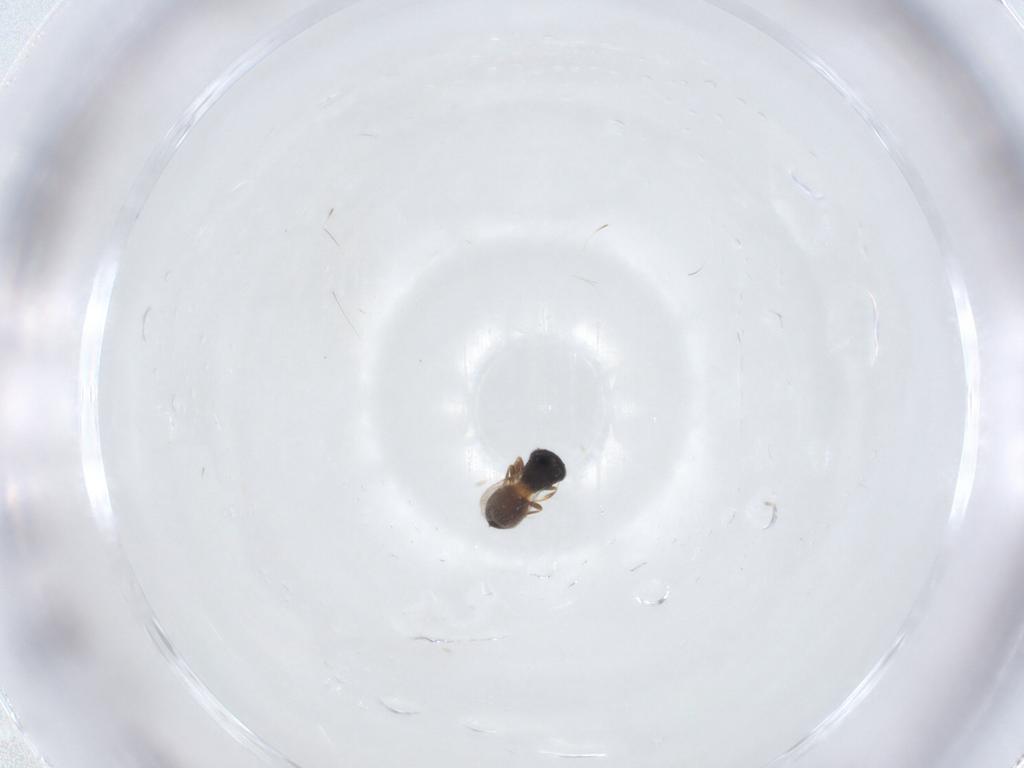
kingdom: Animalia
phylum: Arthropoda
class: Insecta
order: Hymenoptera
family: Scelionidae
